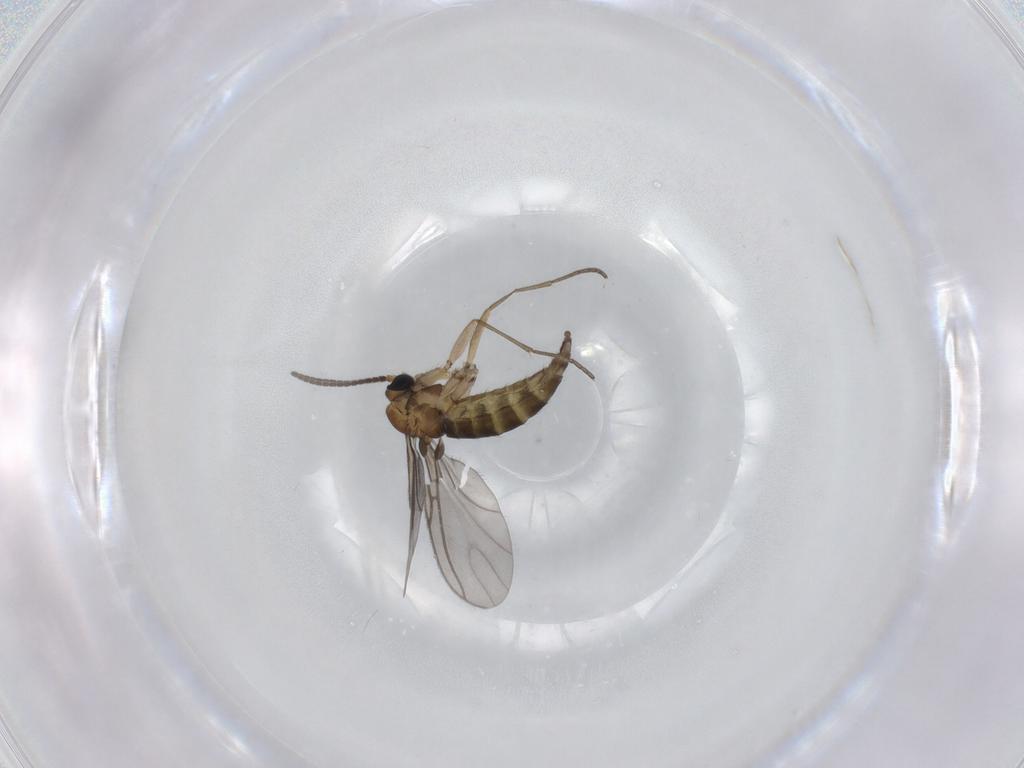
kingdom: Animalia
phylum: Arthropoda
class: Insecta
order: Diptera
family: Sciaridae
